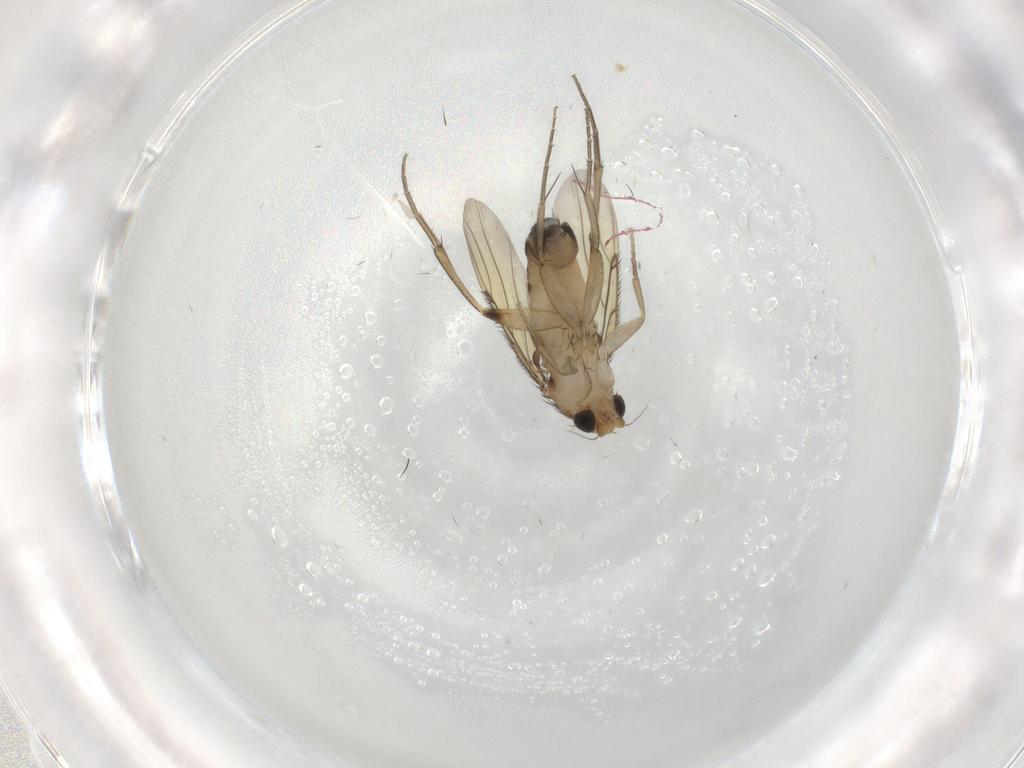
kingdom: Animalia
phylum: Arthropoda
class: Insecta
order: Diptera
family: Phoridae
